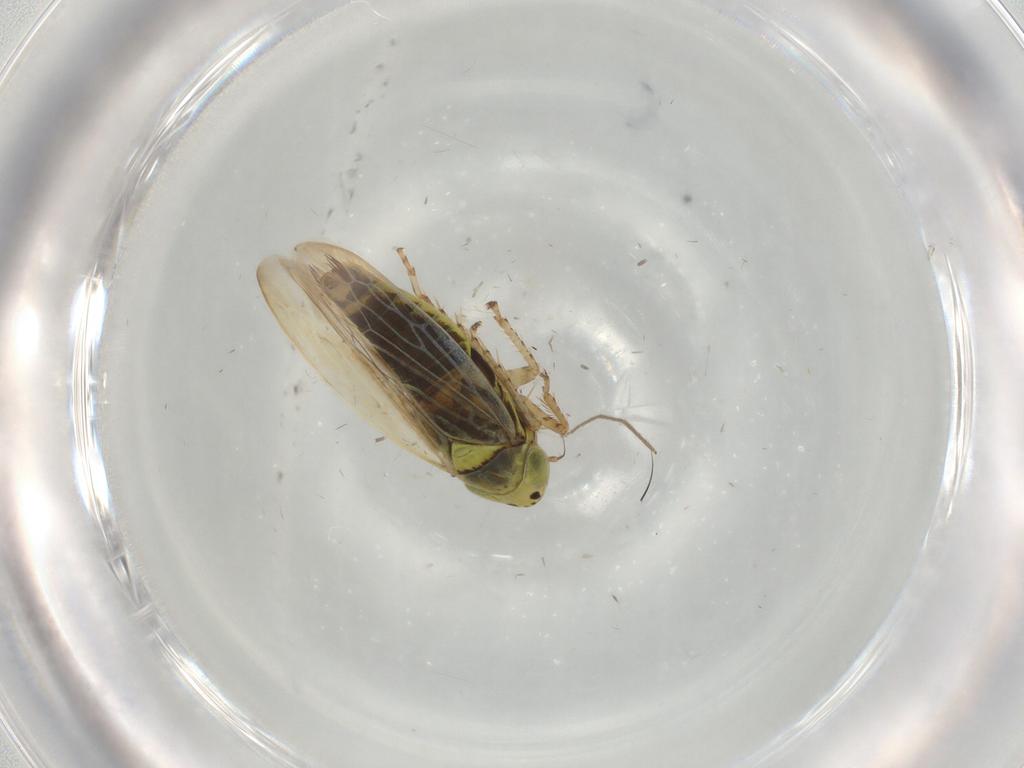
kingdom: Animalia
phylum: Arthropoda
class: Insecta
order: Hemiptera
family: Cicadellidae
